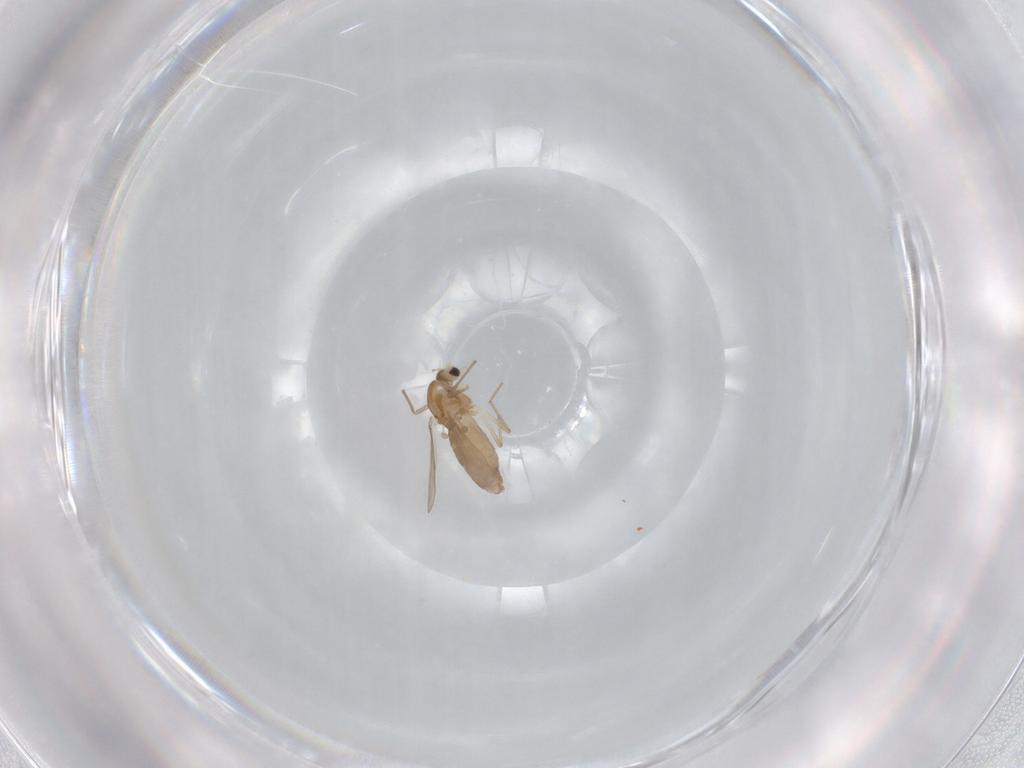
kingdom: Animalia
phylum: Arthropoda
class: Insecta
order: Diptera
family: Chironomidae
